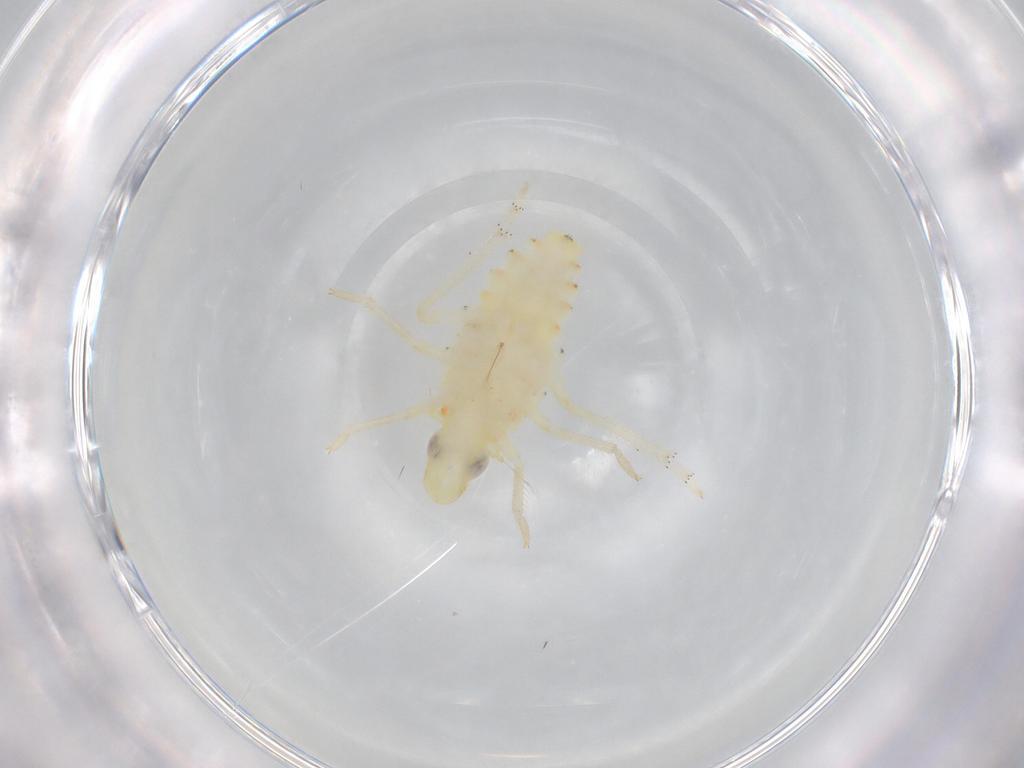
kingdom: Animalia
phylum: Arthropoda
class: Insecta
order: Hemiptera
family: Tropiduchidae
